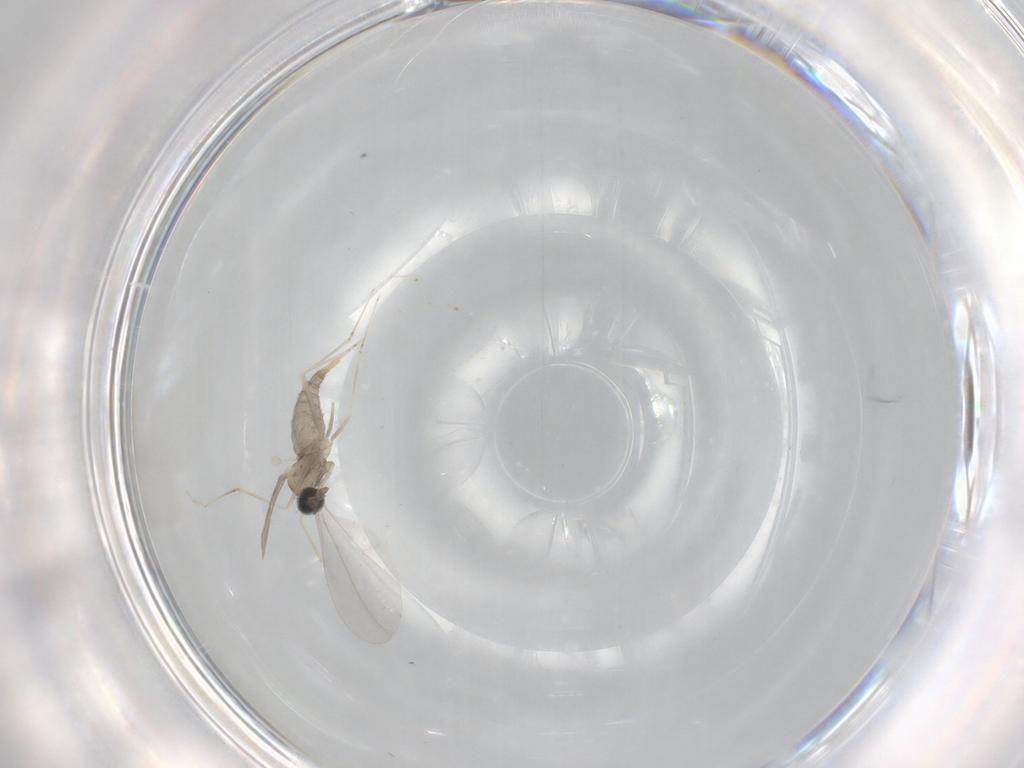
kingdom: Animalia
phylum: Arthropoda
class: Insecta
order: Diptera
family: Cecidomyiidae
